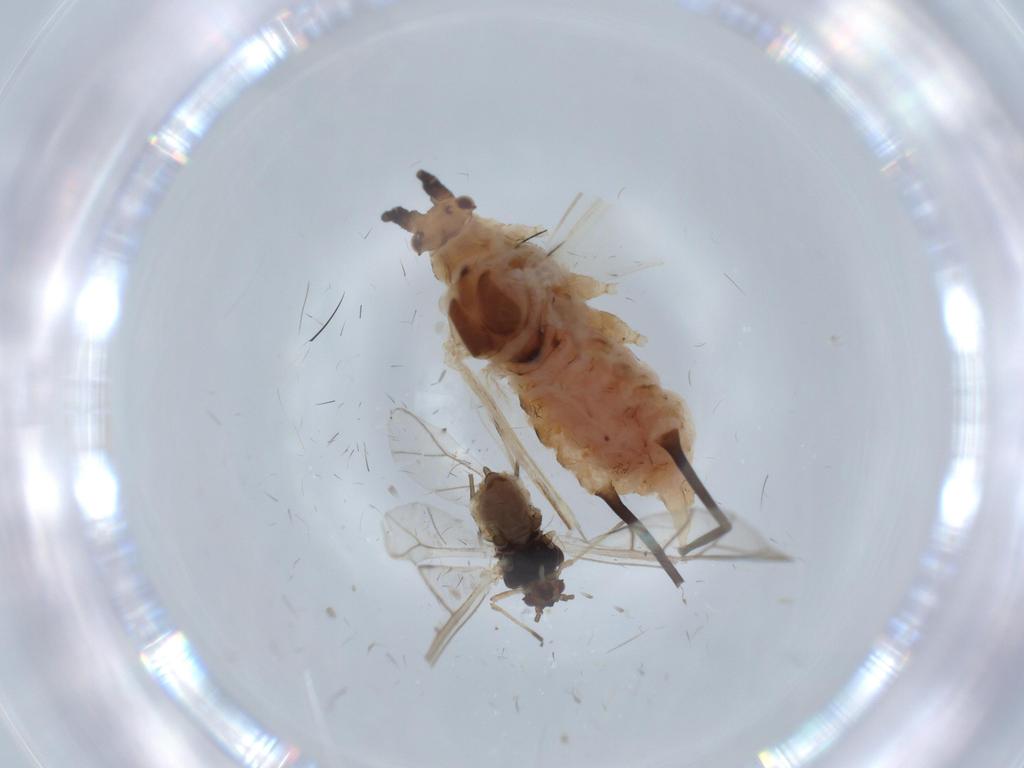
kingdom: Animalia
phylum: Arthropoda
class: Insecta
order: Hemiptera
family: Aphididae
